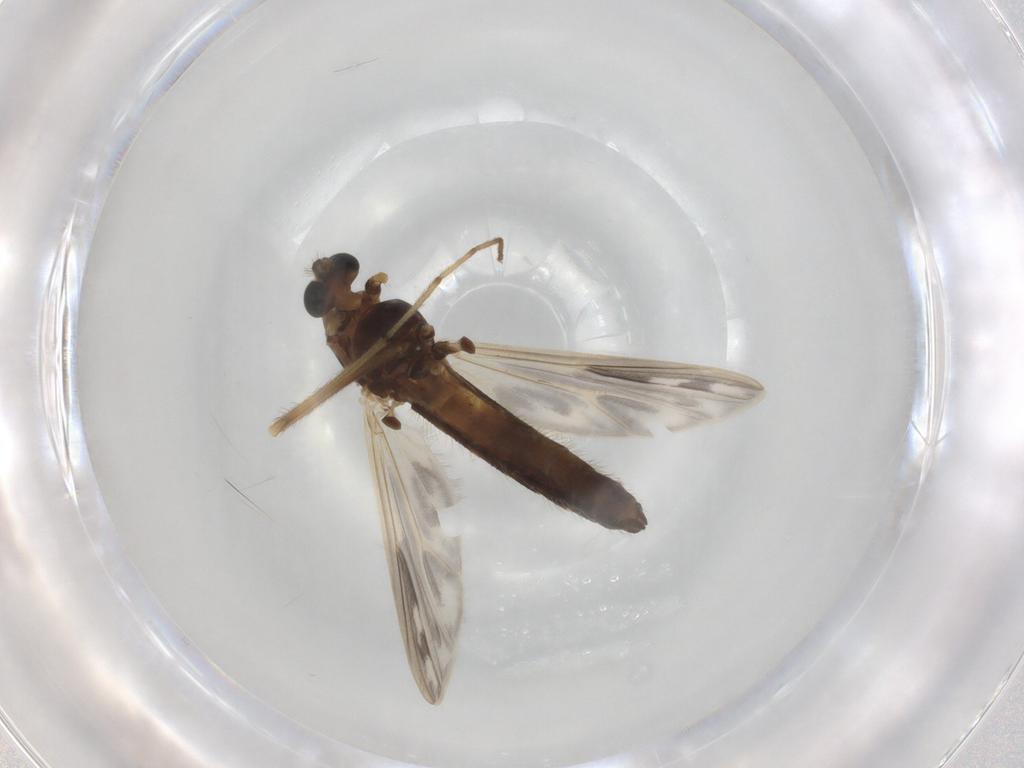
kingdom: Animalia
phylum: Arthropoda
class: Insecta
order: Diptera
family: Chironomidae
